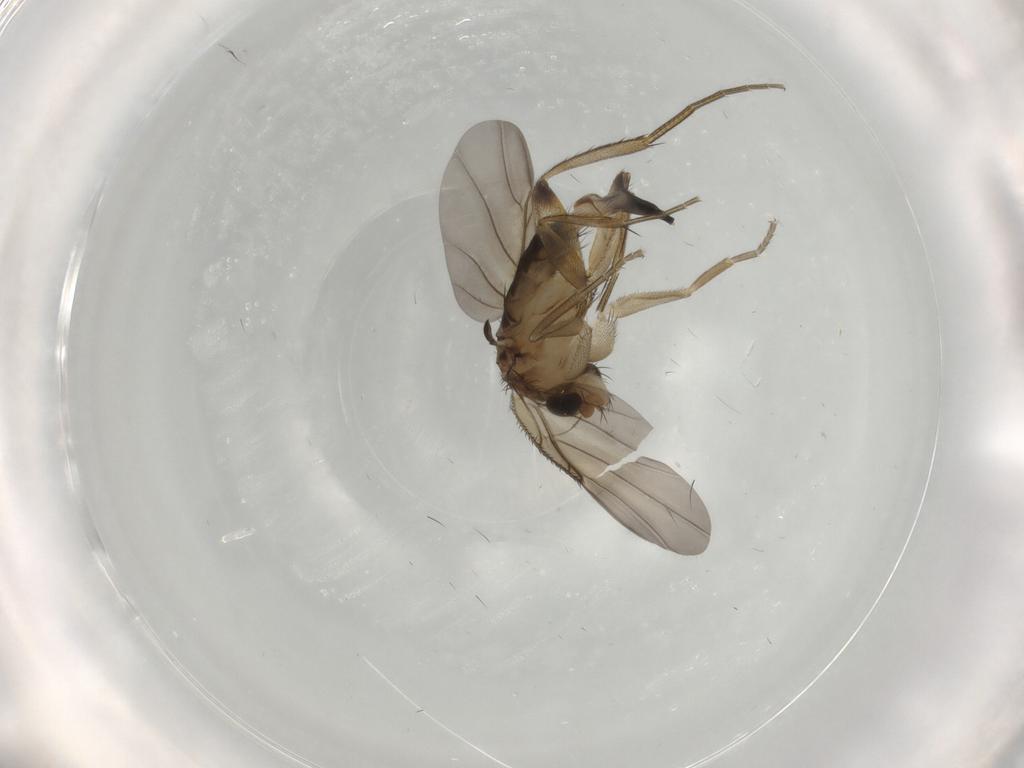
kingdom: Animalia
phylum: Arthropoda
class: Insecta
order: Diptera
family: Phoridae
